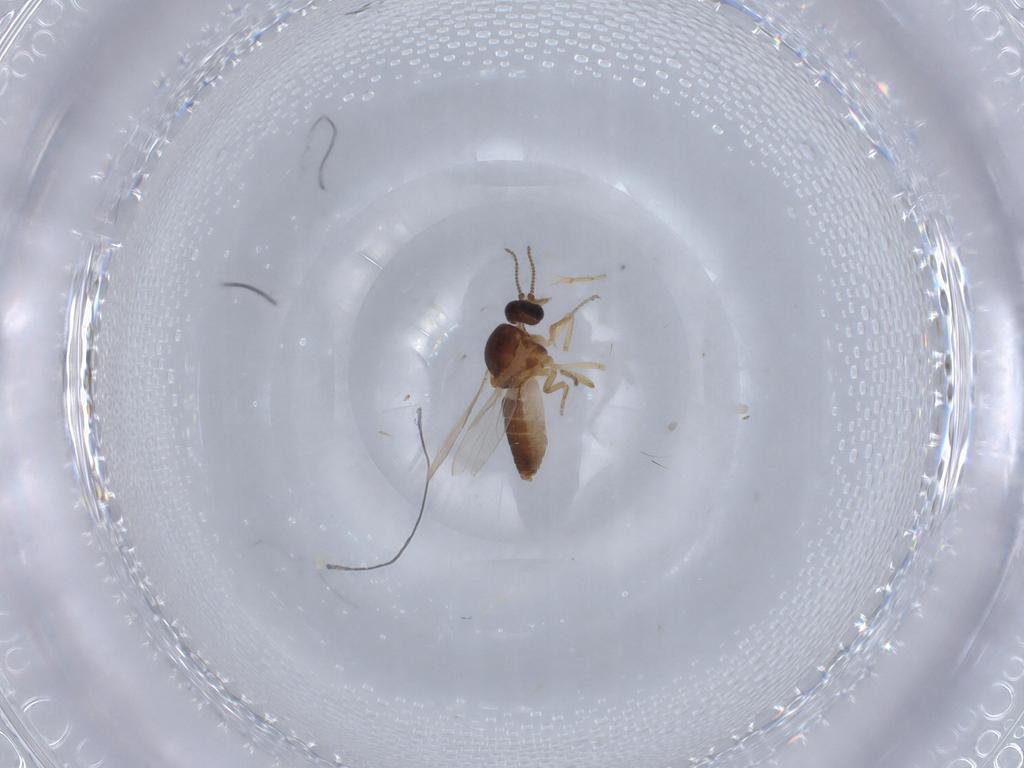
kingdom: Animalia
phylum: Arthropoda
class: Insecta
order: Diptera
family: Ceratopogonidae
